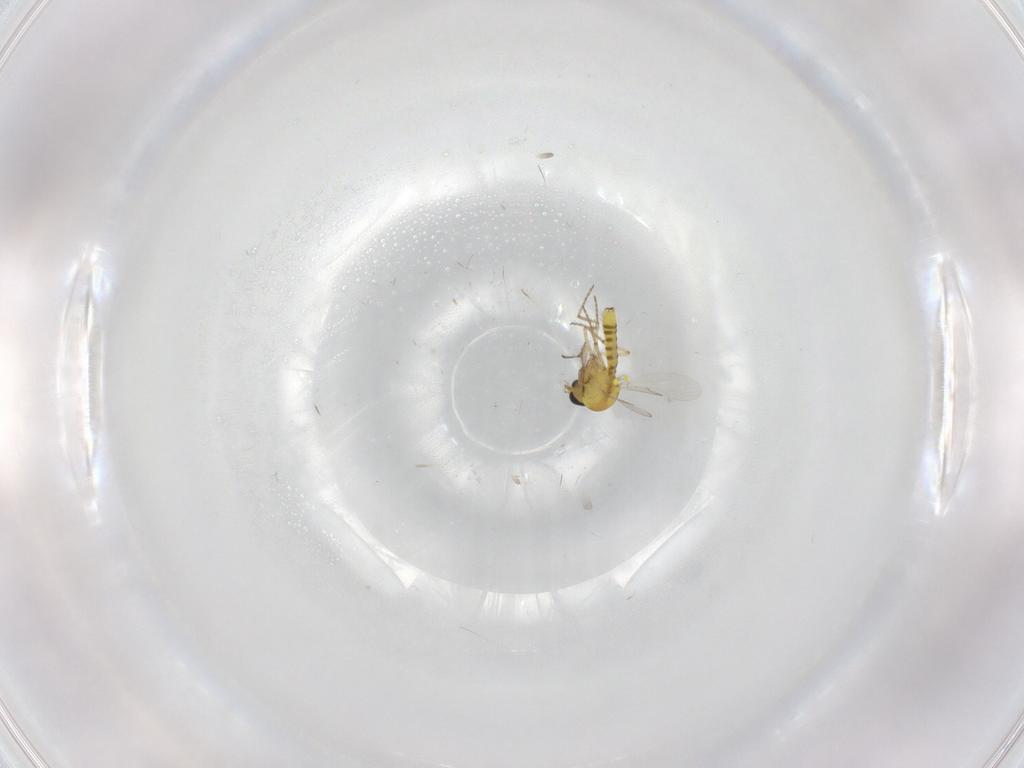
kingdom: Animalia
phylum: Arthropoda
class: Insecta
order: Diptera
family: Ceratopogonidae
